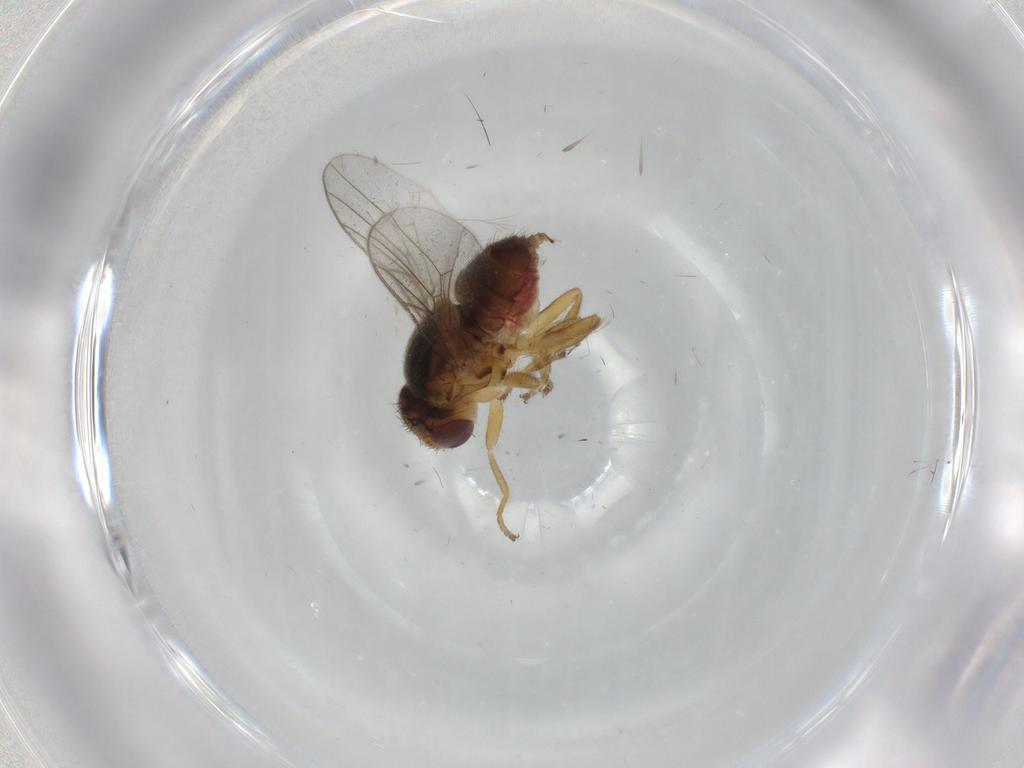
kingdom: Animalia
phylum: Arthropoda
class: Insecta
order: Diptera
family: Chloropidae
